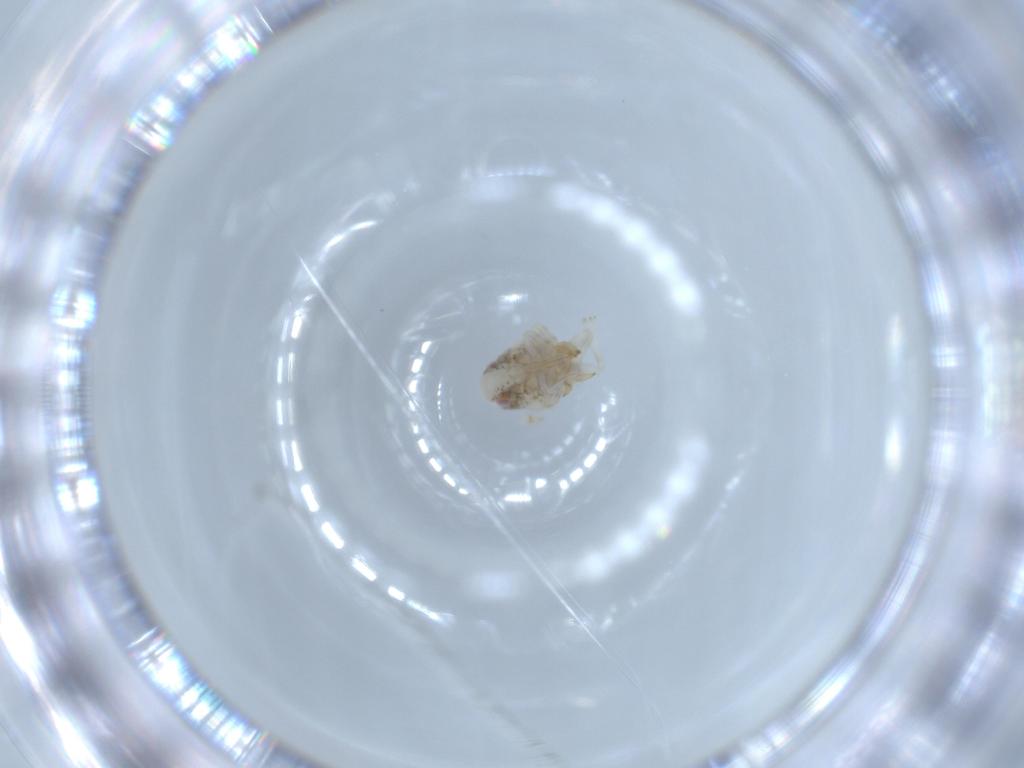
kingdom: Animalia
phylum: Arthropoda
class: Insecta
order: Hemiptera
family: Acanaloniidae
